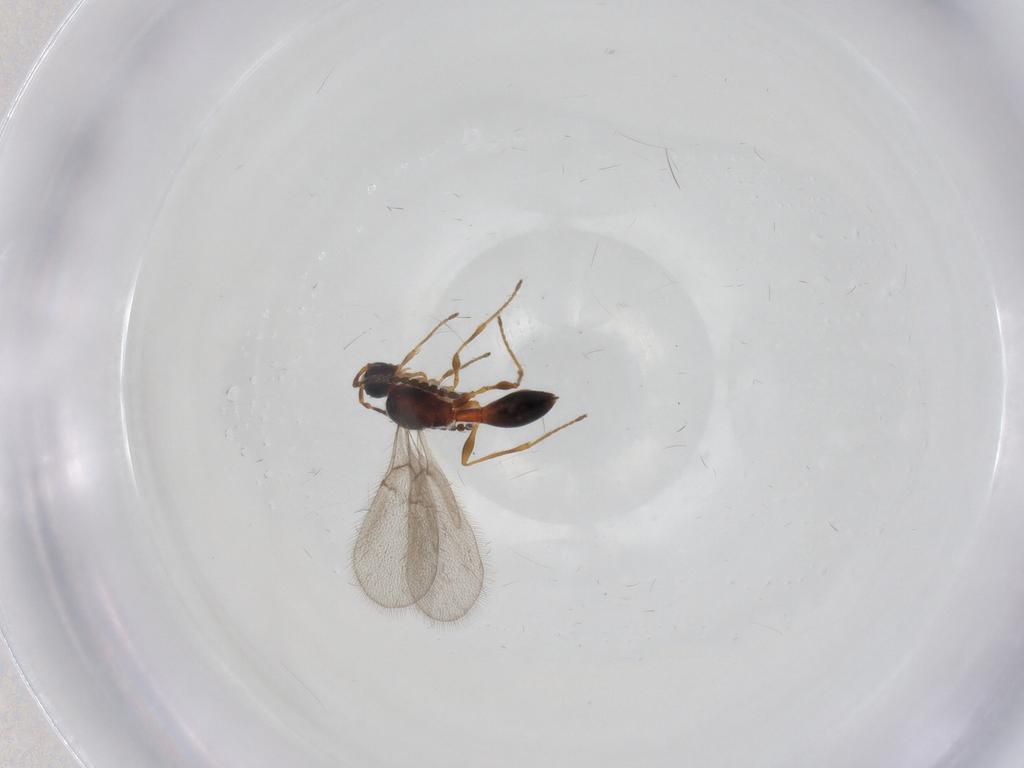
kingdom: Animalia
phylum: Arthropoda
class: Insecta
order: Hymenoptera
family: Diapriidae
